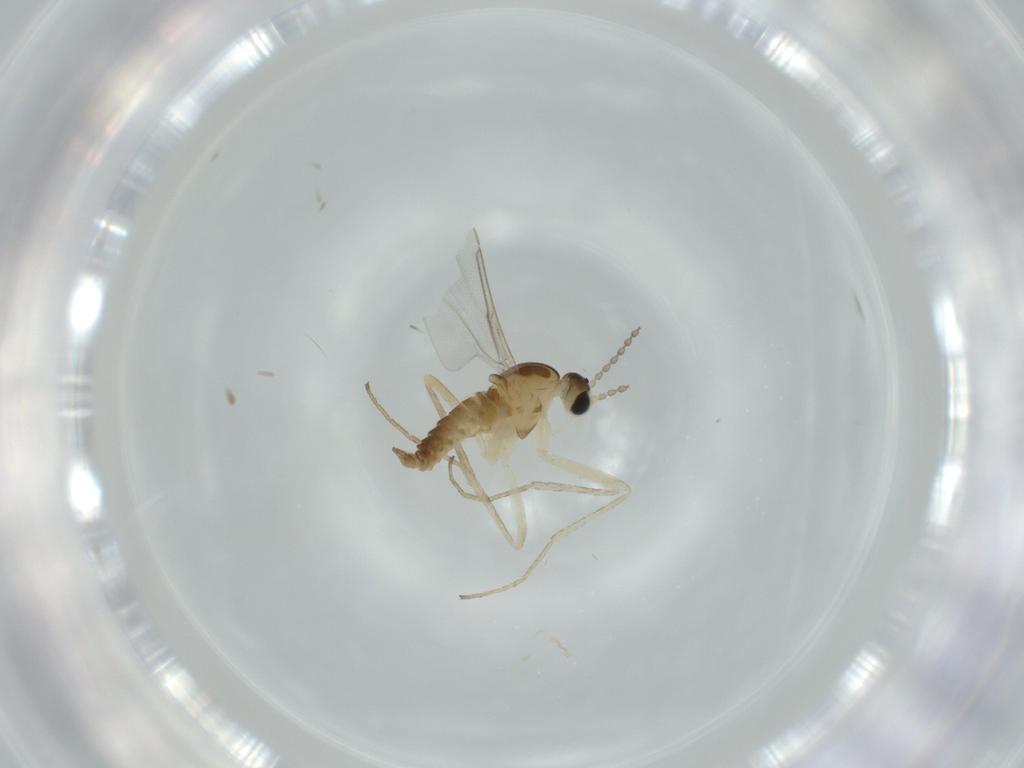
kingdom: Animalia
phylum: Arthropoda
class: Insecta
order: Diptera
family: Cecidomyiidae
